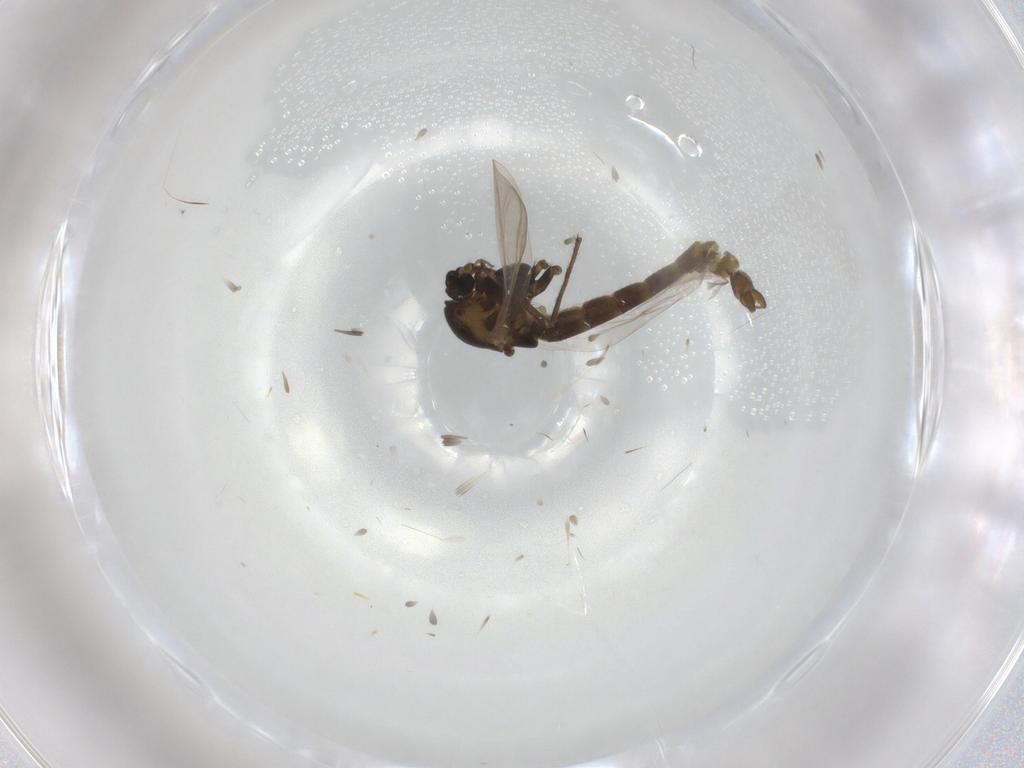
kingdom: Animalia
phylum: Arthropoda
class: Insecta
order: Diptera
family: Chironomidae
